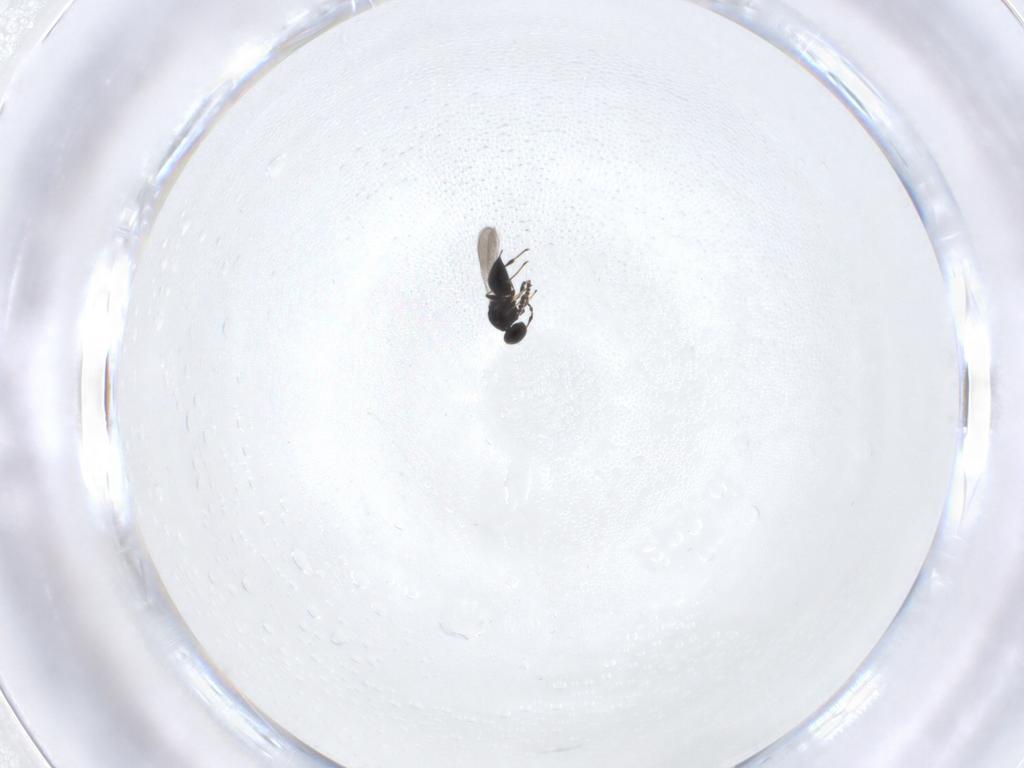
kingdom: Animalia
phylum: Arthropoda
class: Insecta
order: Hymenoptera
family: Platygastridae
